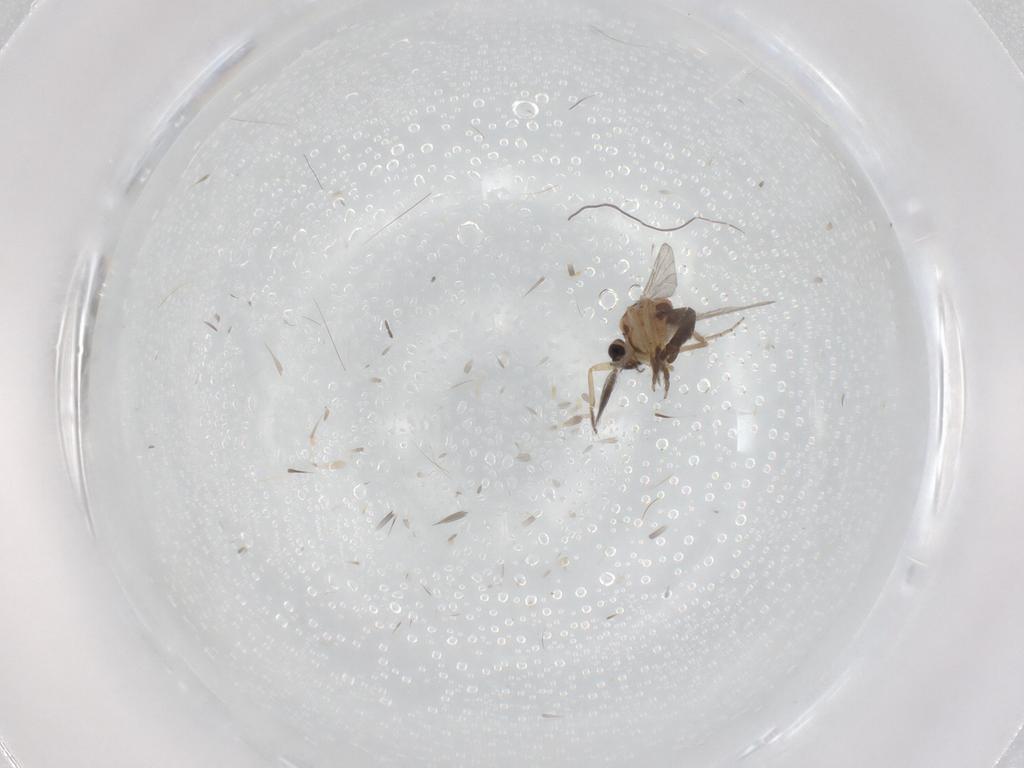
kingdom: Animalia
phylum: Arthropoda
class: Insecta
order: Diptera
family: Cecidomyiidae
